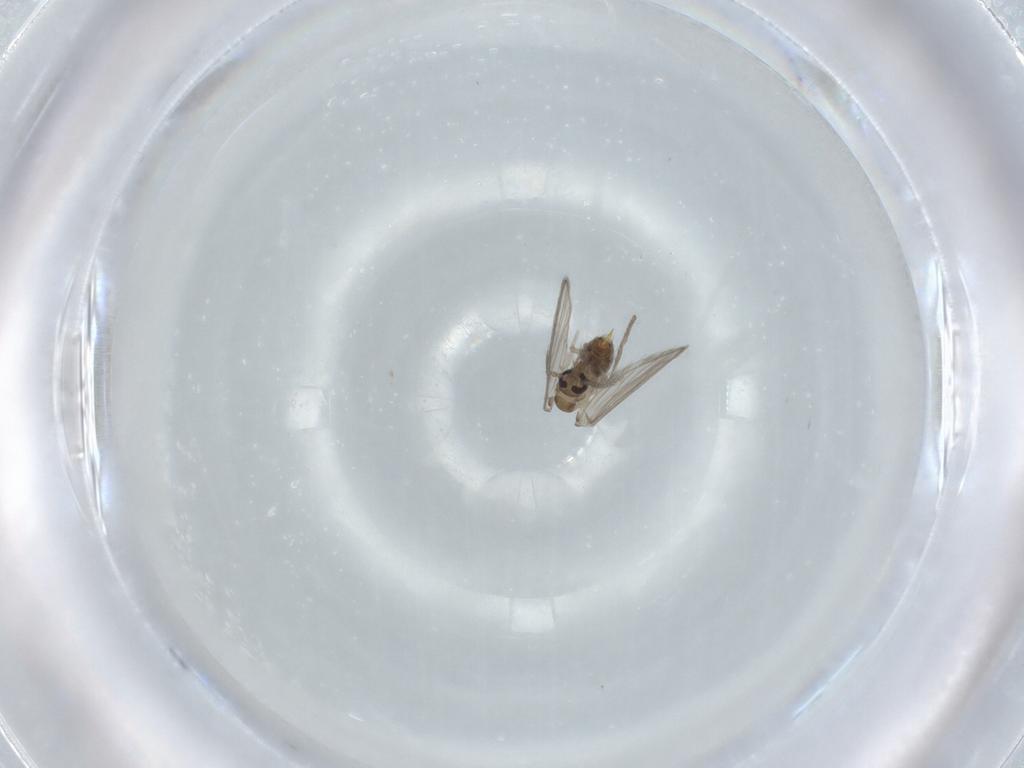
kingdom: Animalia
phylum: Arthropoda
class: Insecta
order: Diptera
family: Psychodidae
